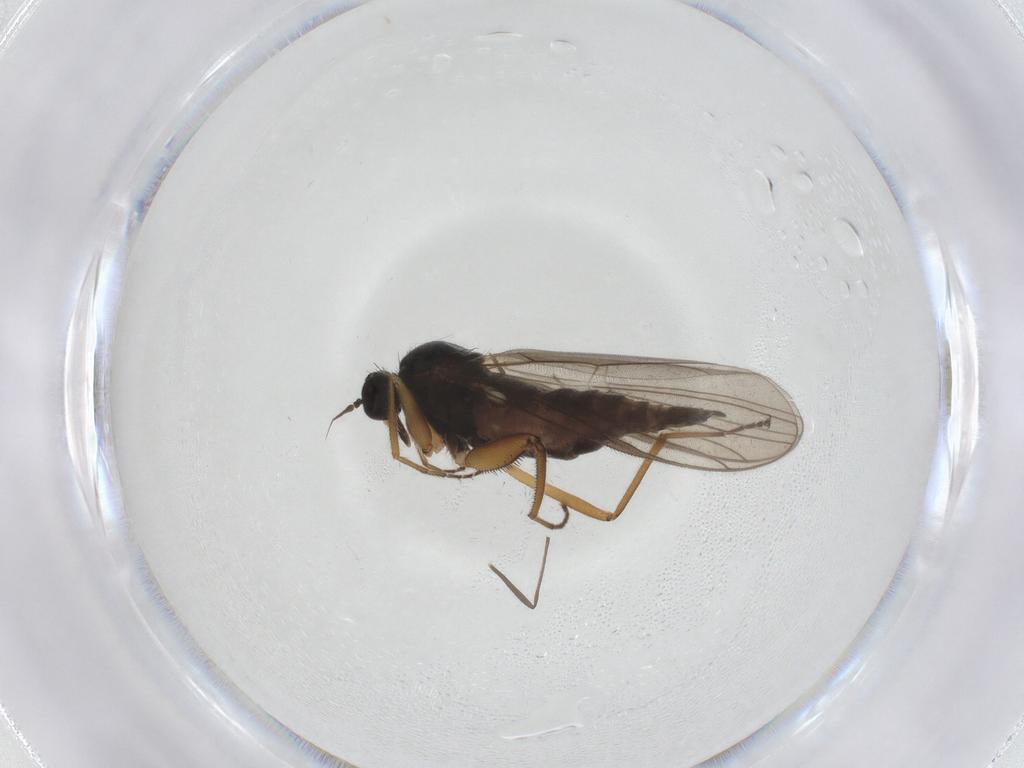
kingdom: Animalia
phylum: Arthropoda
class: Insecta
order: Diptera
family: Hybotidae
